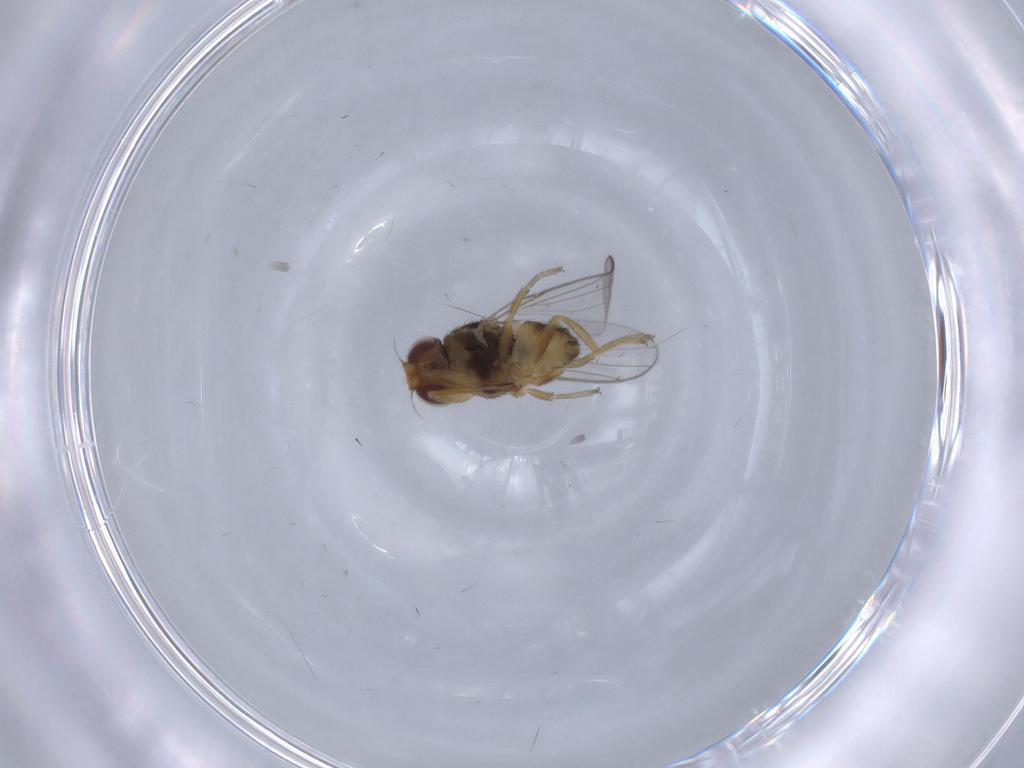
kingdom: Animalia
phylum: Arthropoda
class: Insecta
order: Diptera
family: Chloropidae
